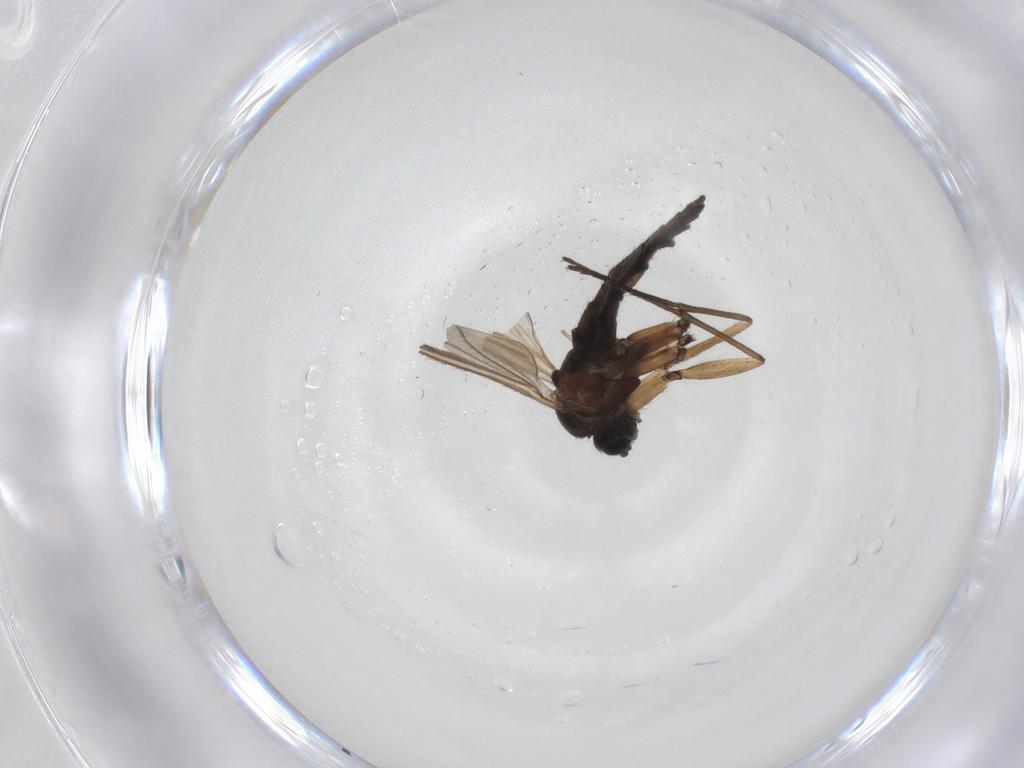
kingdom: Animalia
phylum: Arthropoda
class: Insecta
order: Diptera
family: Sciaridae
